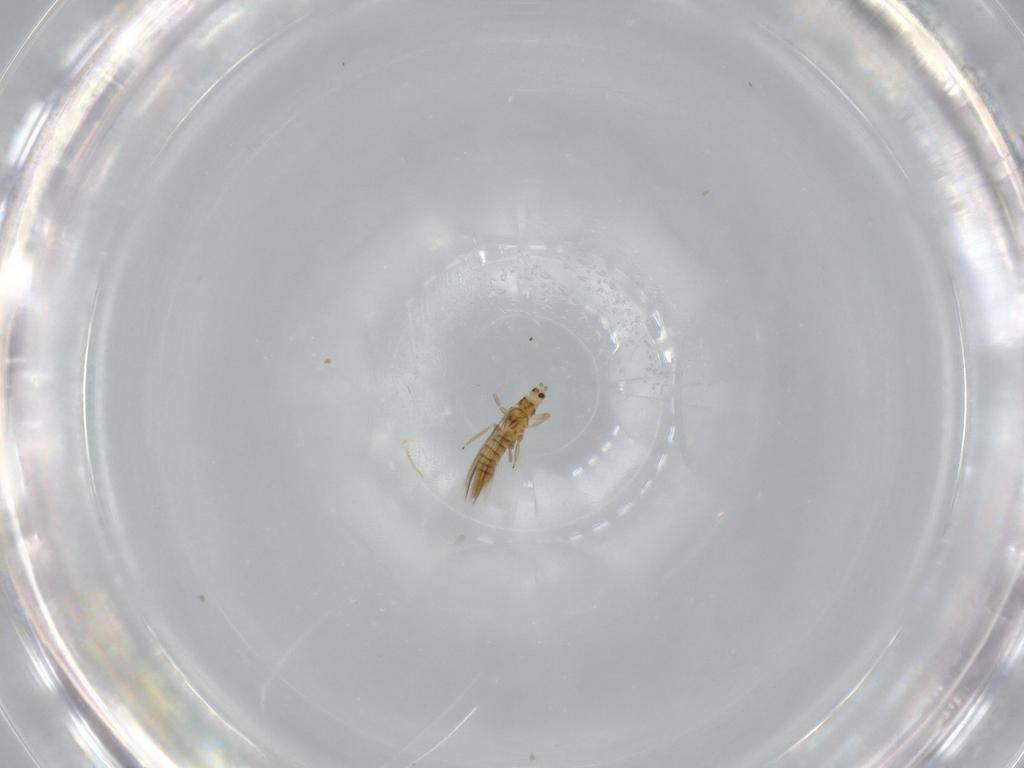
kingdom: Animalia
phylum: Arthropoda
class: Insecta
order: Thysanoptera
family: Thripidae
